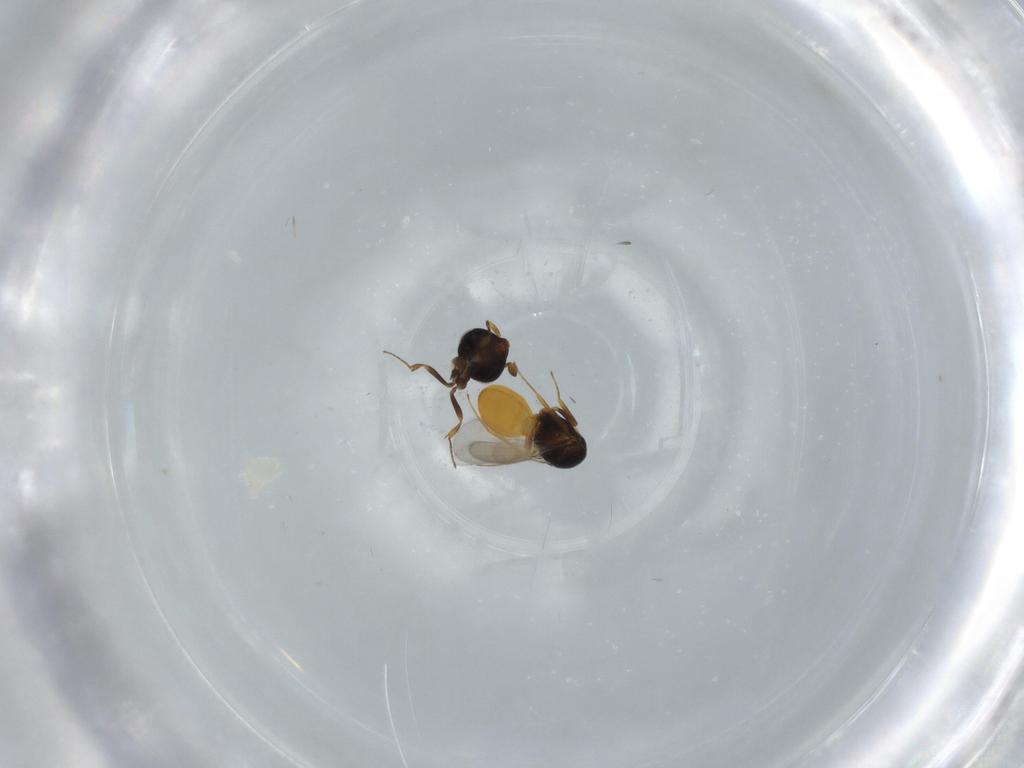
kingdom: Animalia
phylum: Arthropoda
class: Insecta
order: Hymenoptera
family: Scelionidae
